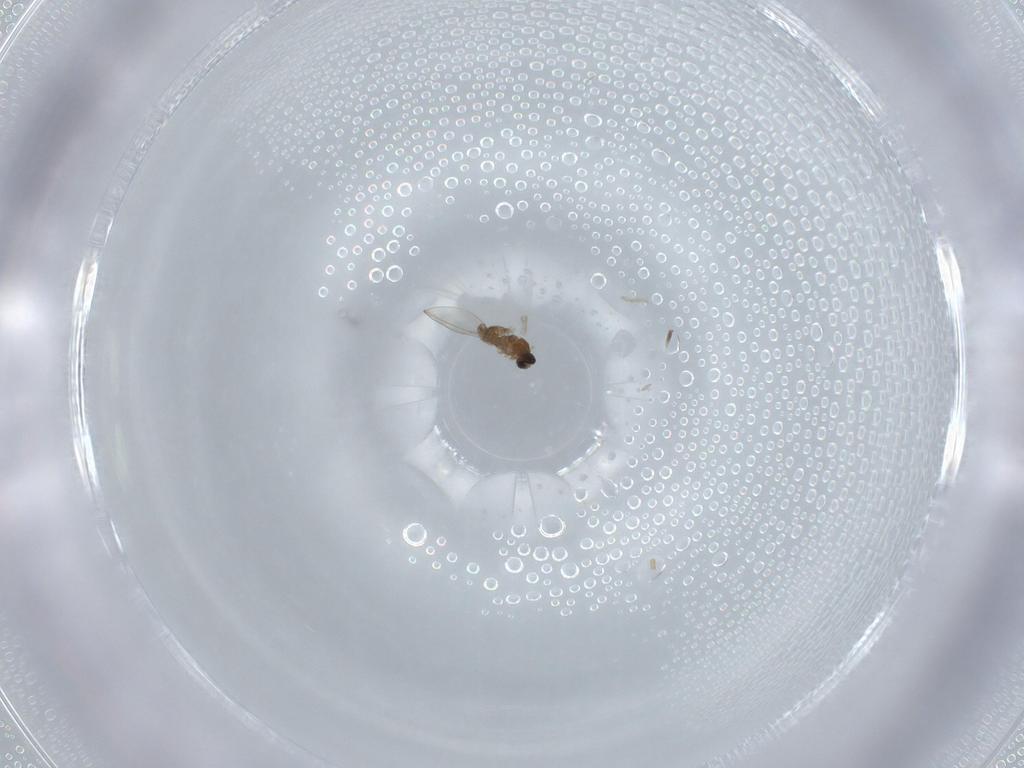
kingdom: Animalia
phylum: Arthropoda
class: Insecta
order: Diptera
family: Cecidomyiidae
